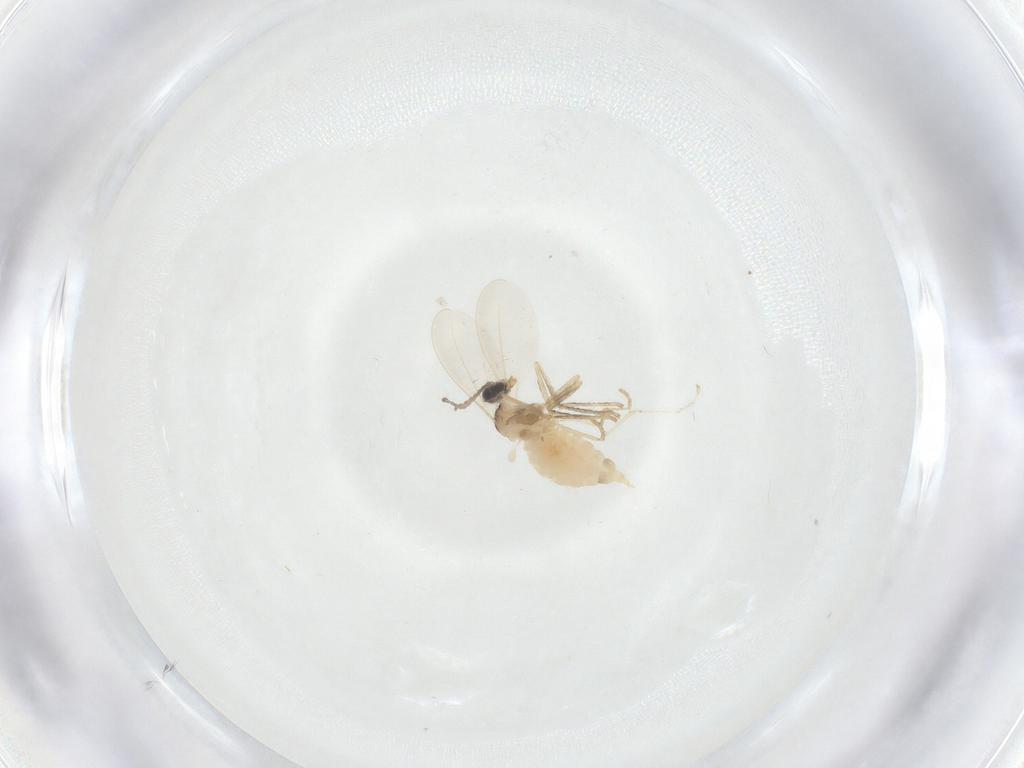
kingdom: Animalia
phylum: Arthropoda
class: Insecta
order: Diptera
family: Cecidomyiidae
